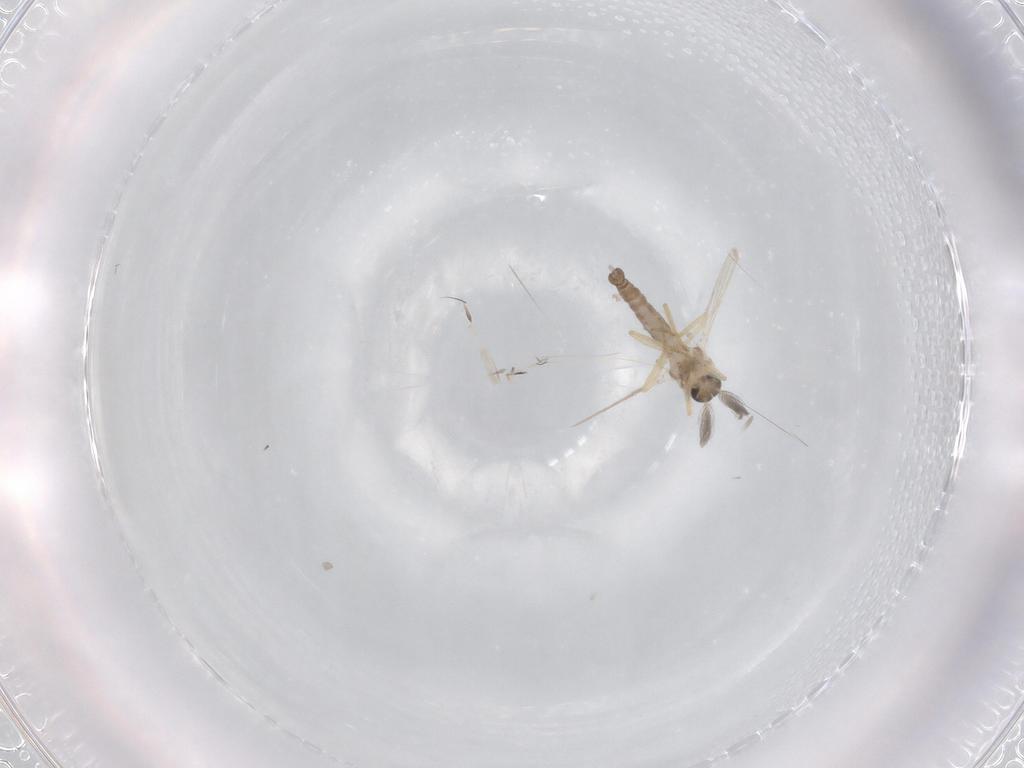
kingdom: Animalia
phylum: Arthropoda
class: Insecta
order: Diptera
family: Ceratopogonidae
